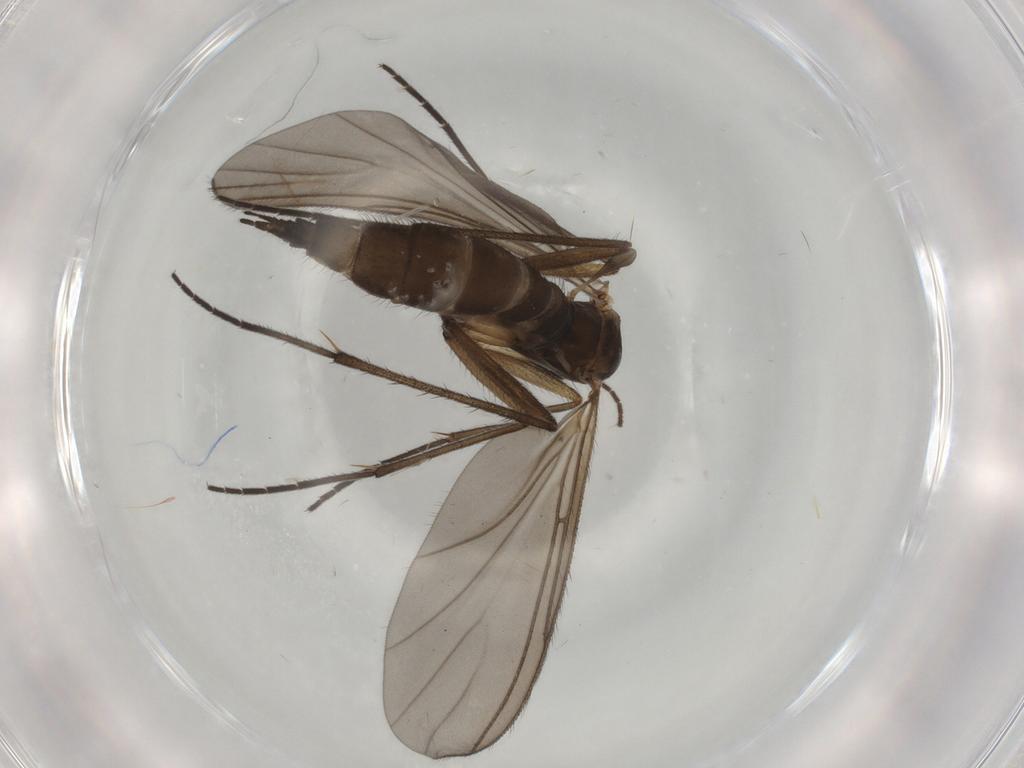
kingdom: Animalia
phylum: Arthropoda
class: Insecta
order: Diptera
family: Sciaridae
